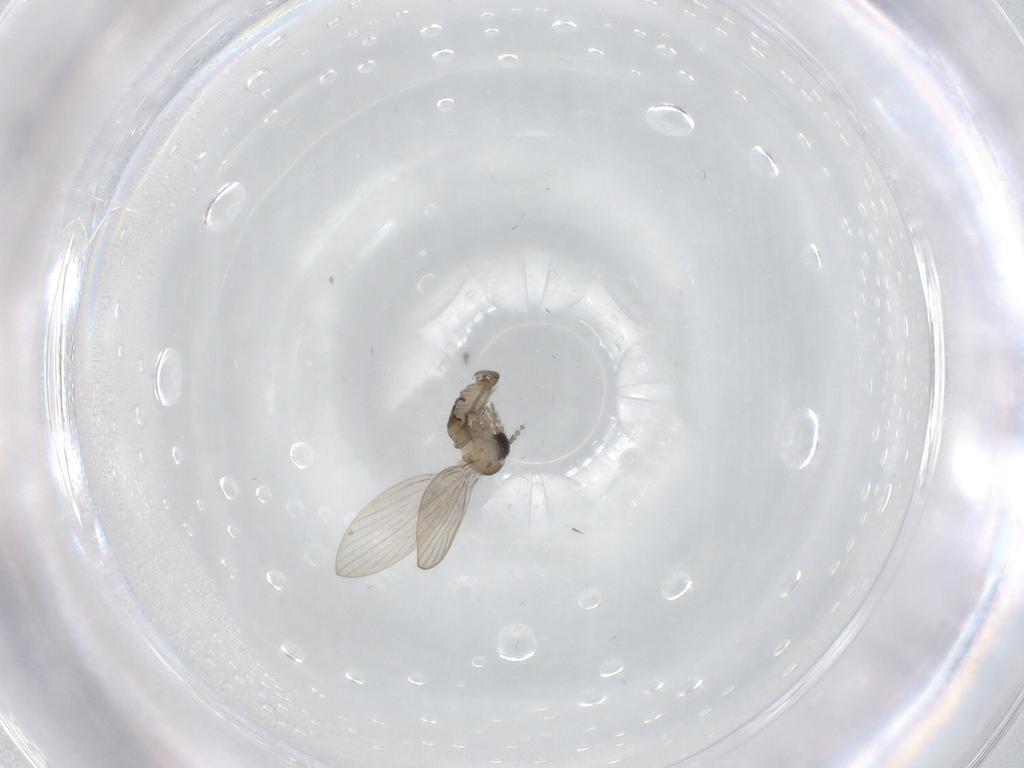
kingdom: Animalia
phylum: Arthropoda
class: Insecta
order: Diptera
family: Psychodidae
